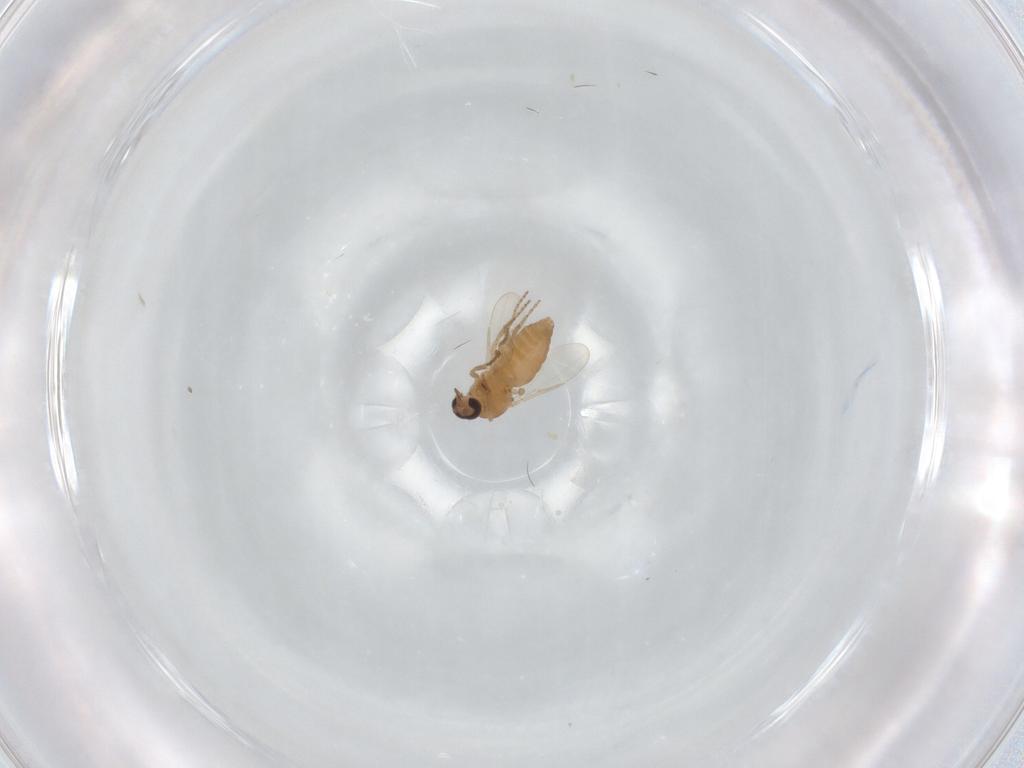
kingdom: Animalia
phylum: Arthropoda
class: Insecta
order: Diptera
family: Ceratopogonidae
